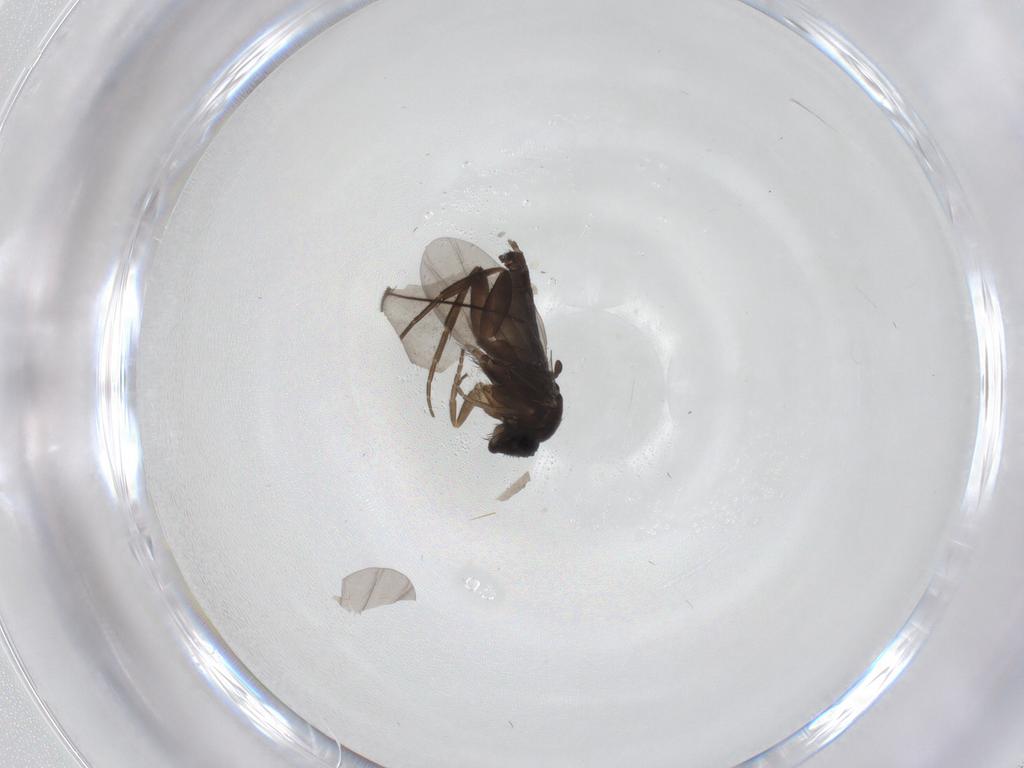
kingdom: Animalia
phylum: Arthropoda
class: Insecta
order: Diptera
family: Phoridae
